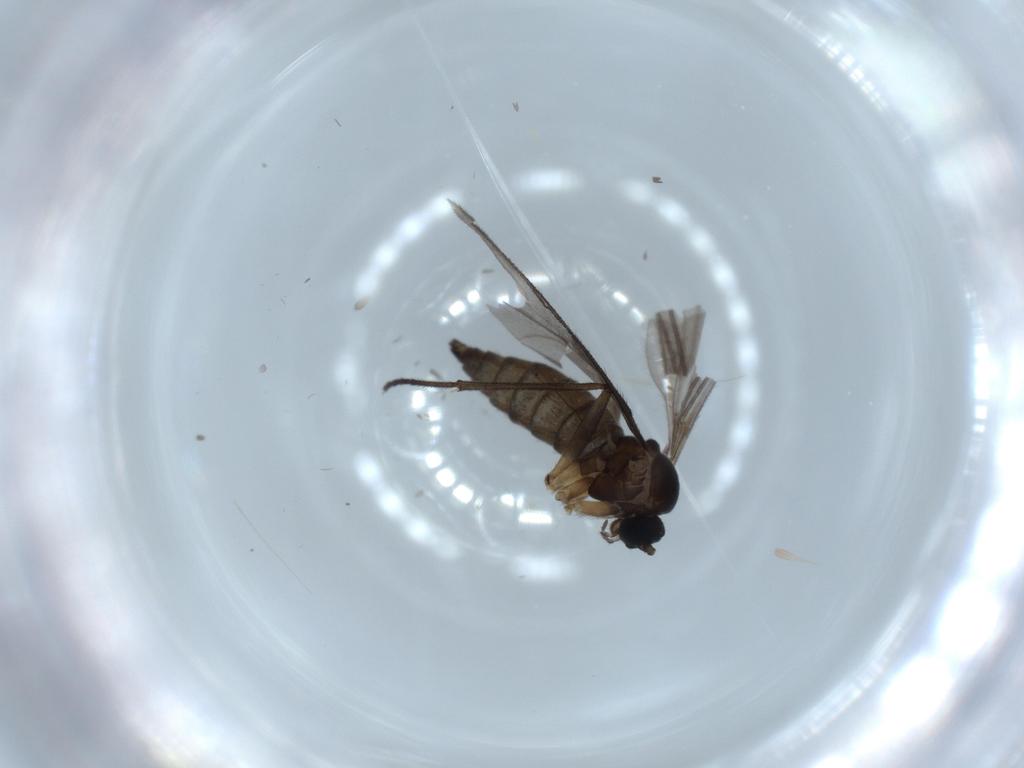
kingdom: Animalia
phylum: Arthropoda
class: Insecta
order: Diptera
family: Sciaridae
